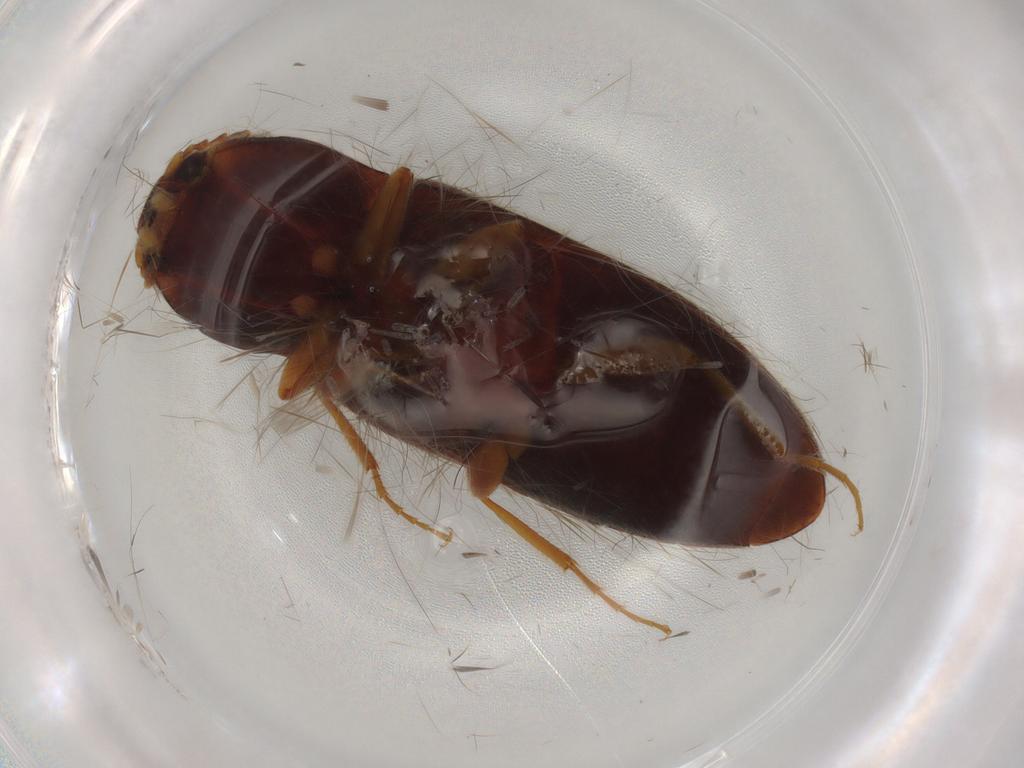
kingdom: Animalia
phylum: Arthropoda
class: Insecta
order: Coleoptera
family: Elateridae
